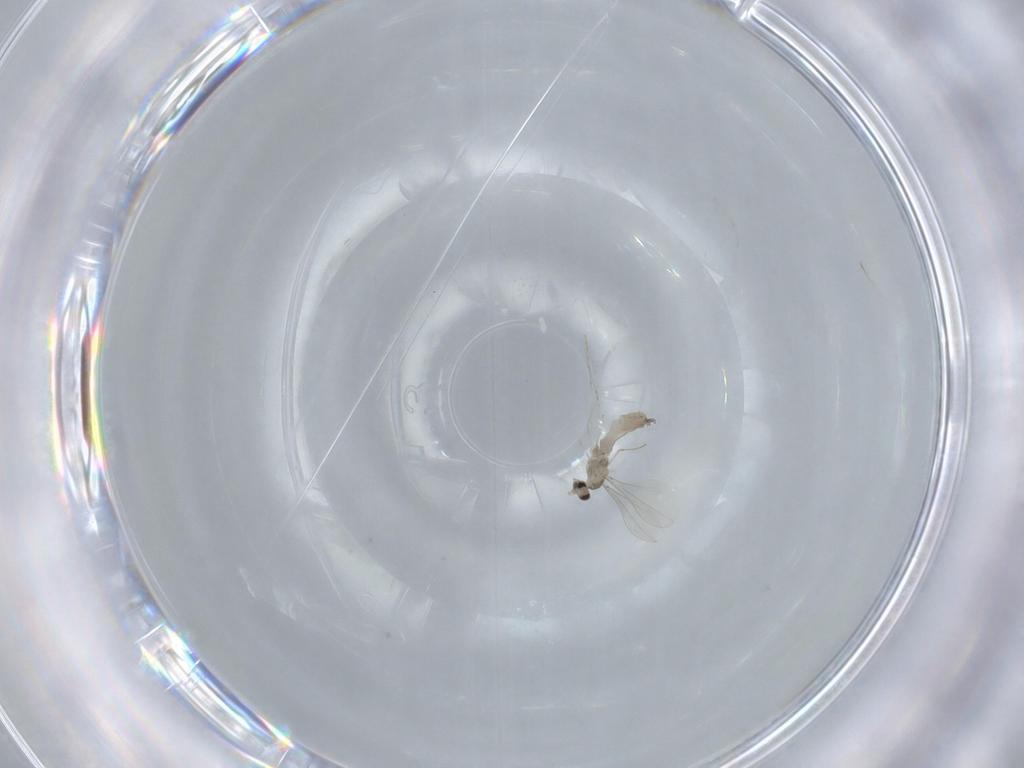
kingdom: Animalia
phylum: Arthropoda
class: Insecta
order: Diptera
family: Cecidomyiidae
